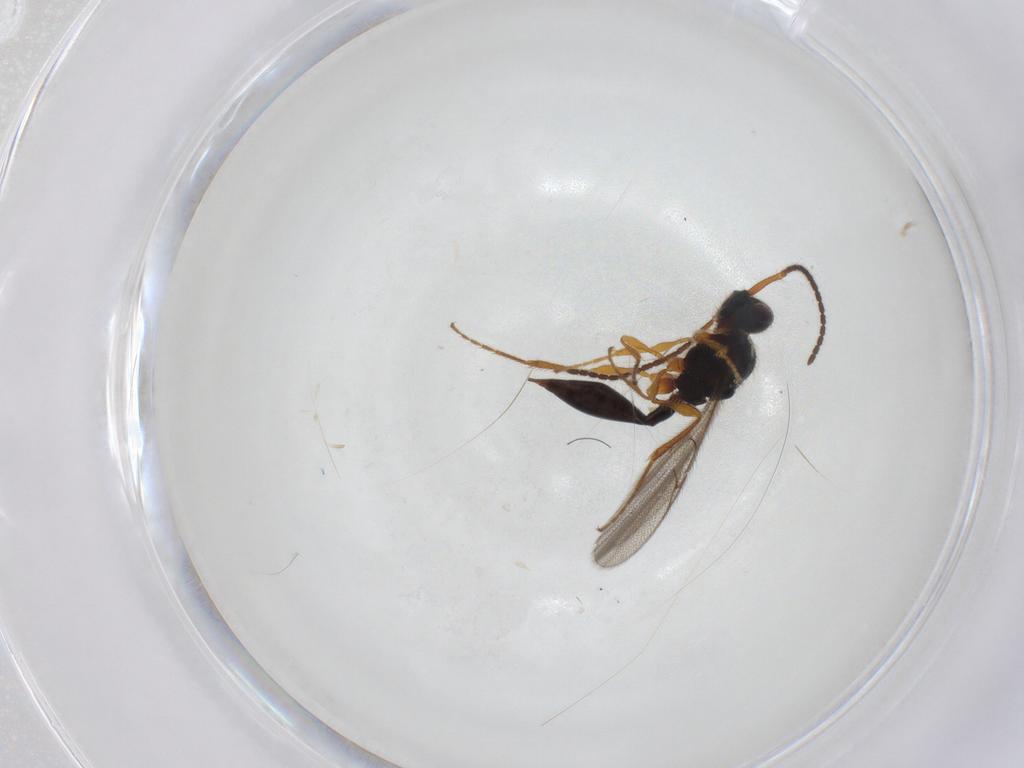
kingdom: Animalia
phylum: Arthropoda
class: Insecta
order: Hymenoptera
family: Diapriidae
